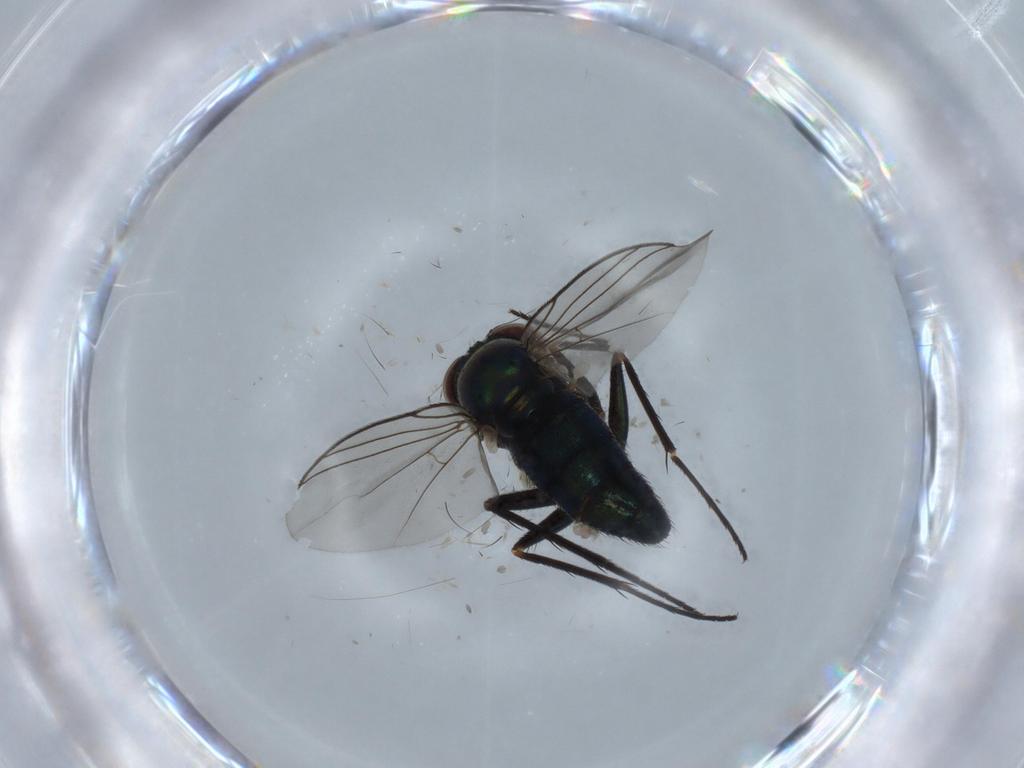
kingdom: Animalia
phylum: Arthropoda
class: Insecta
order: Diptera
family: Dolichopodidae
